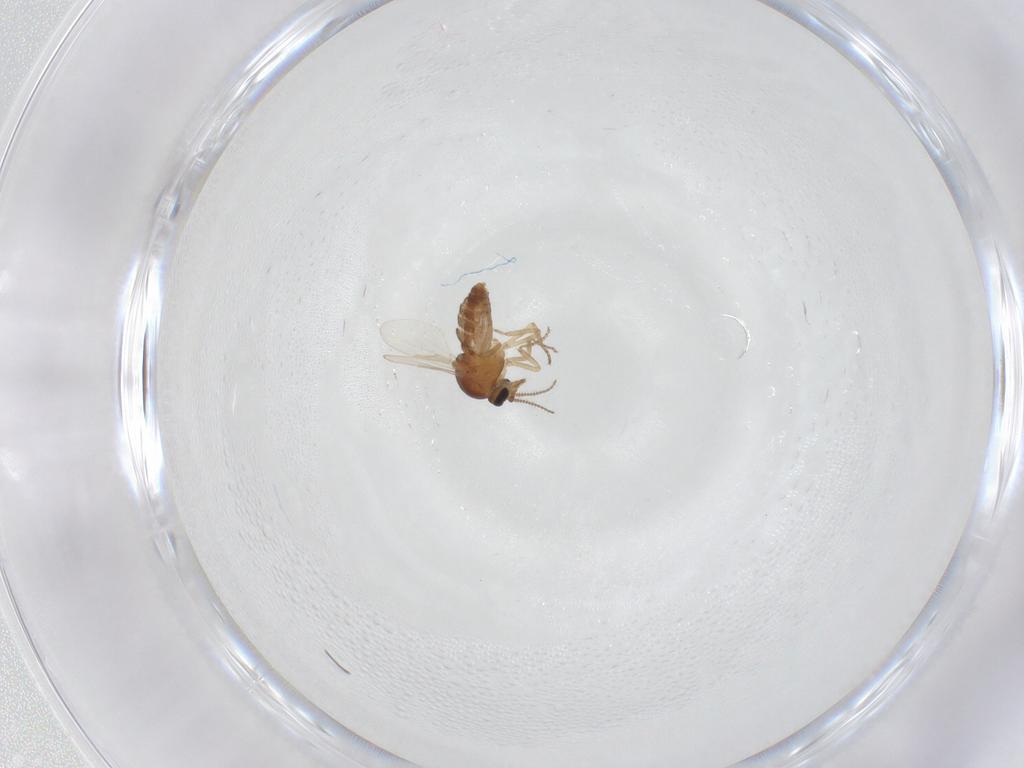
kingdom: Animalia
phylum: Arthropoda
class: Insecta
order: Diptera
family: Ceratopogonidae
